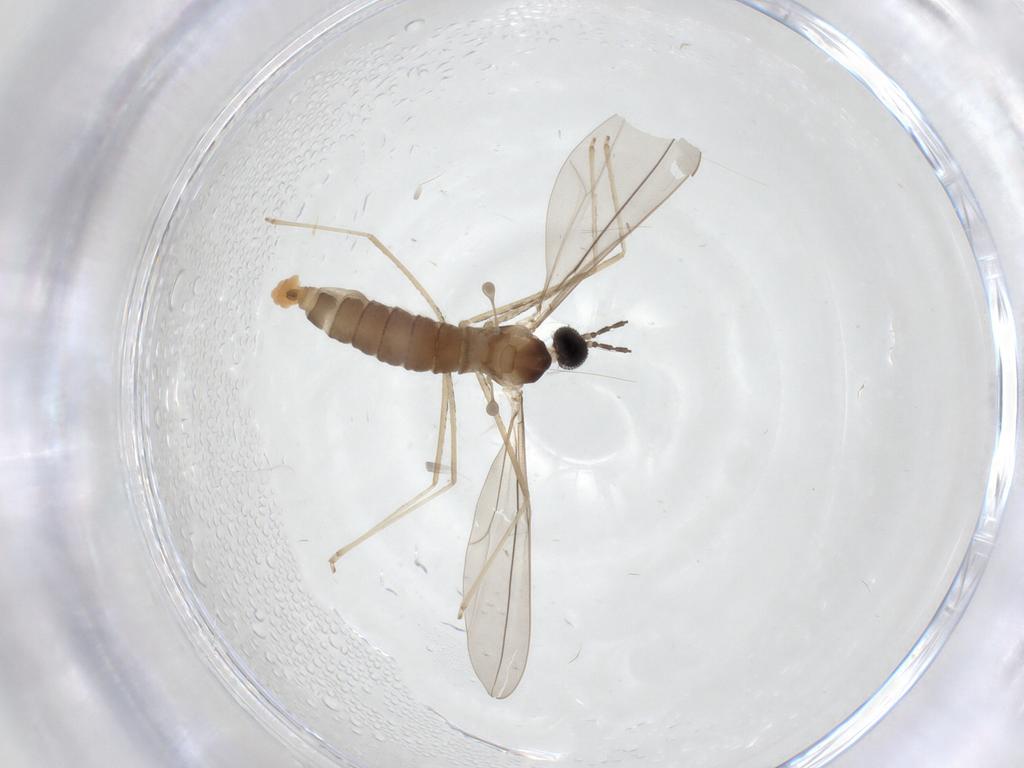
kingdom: Animalia
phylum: Arthropoda
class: Insecta
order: Diptera
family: Cecidomyiidae
